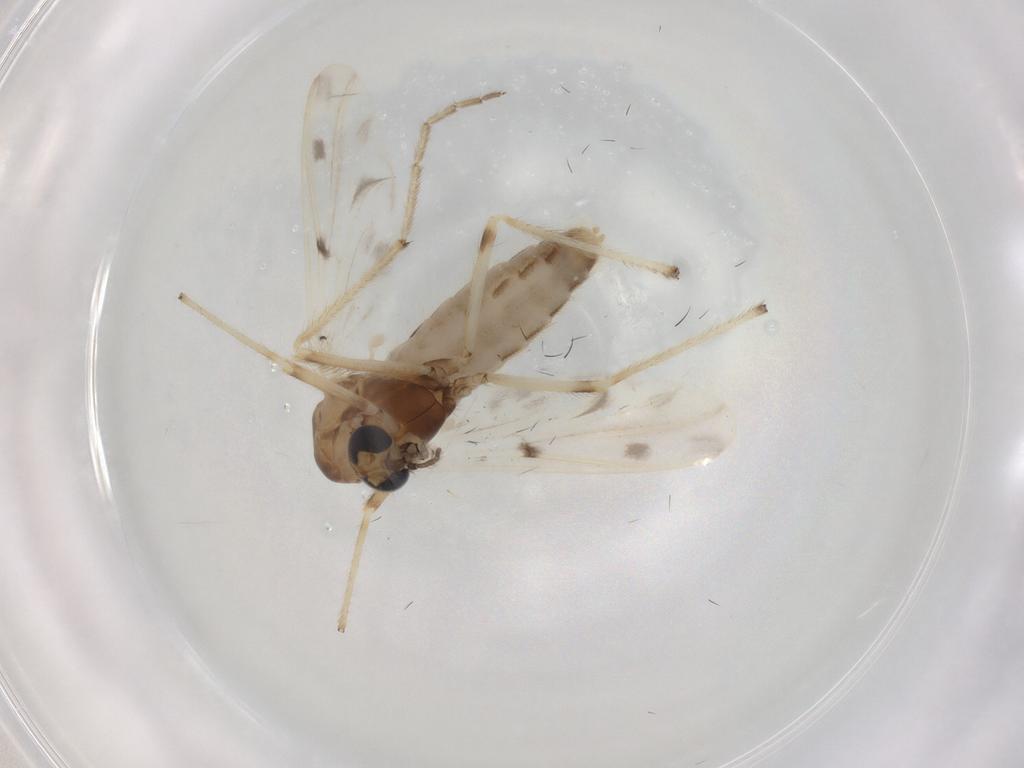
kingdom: Animalia
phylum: Arthropoda
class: Insecta
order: Diptera
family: Chironomidae
